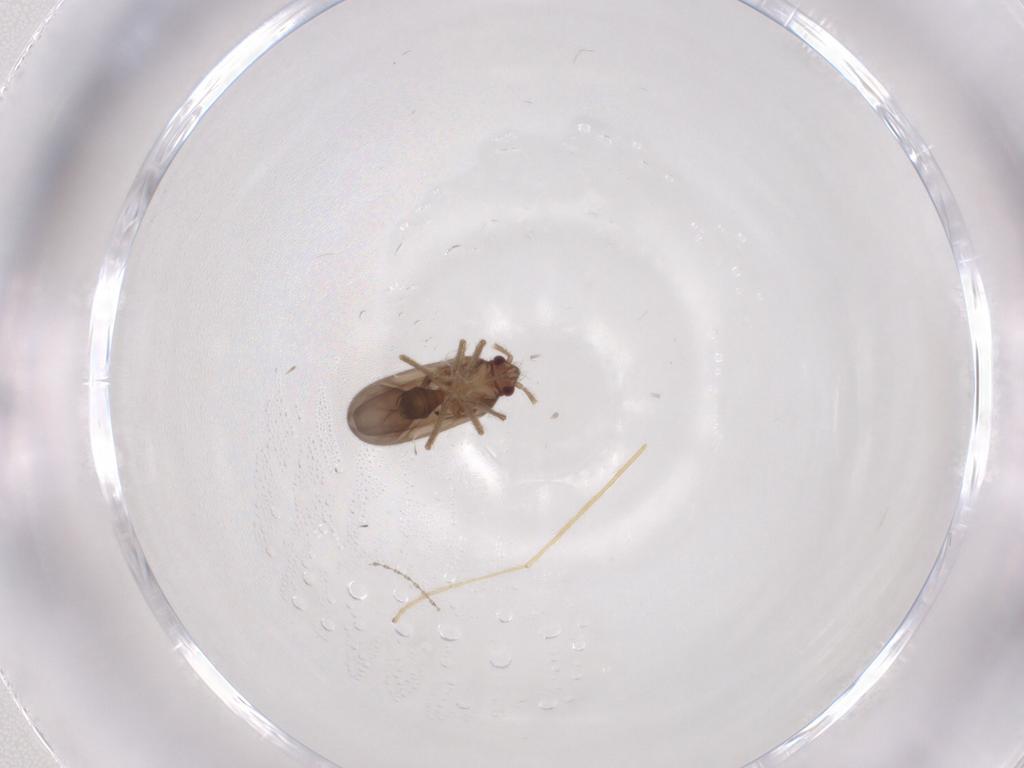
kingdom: Animalia
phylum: Arthropoda
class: Insecta
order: Hemiptera
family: Ceratocombidae
